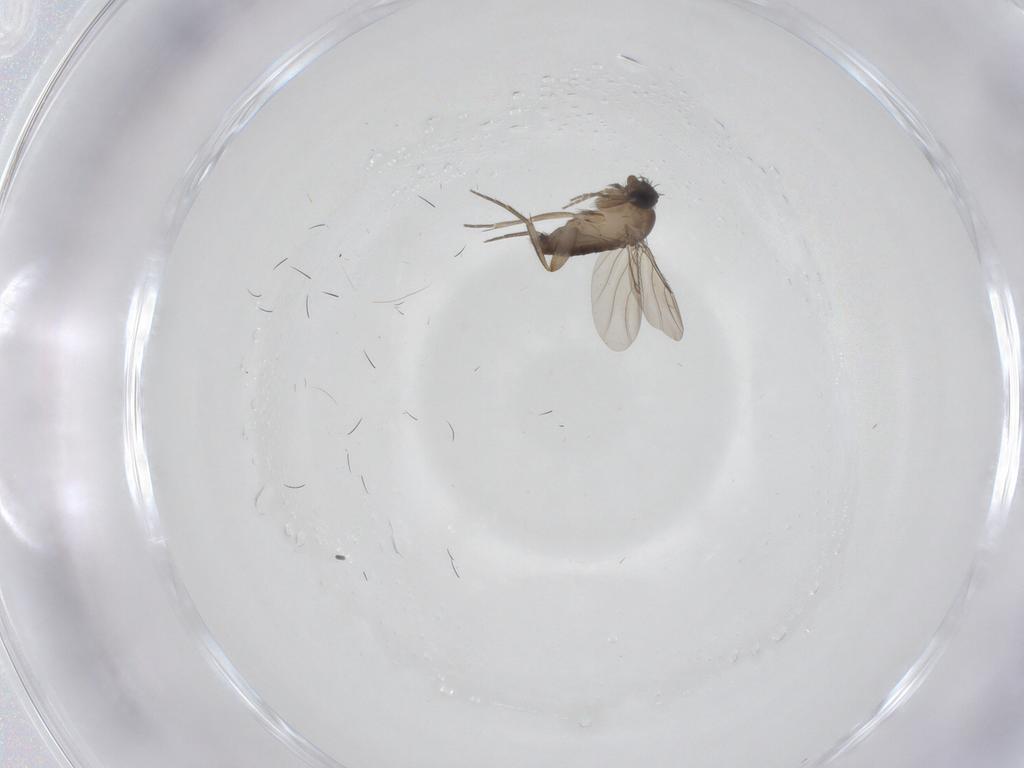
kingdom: Animalia
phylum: Arthropoda
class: Insecta
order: Diptera
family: Phoridae
